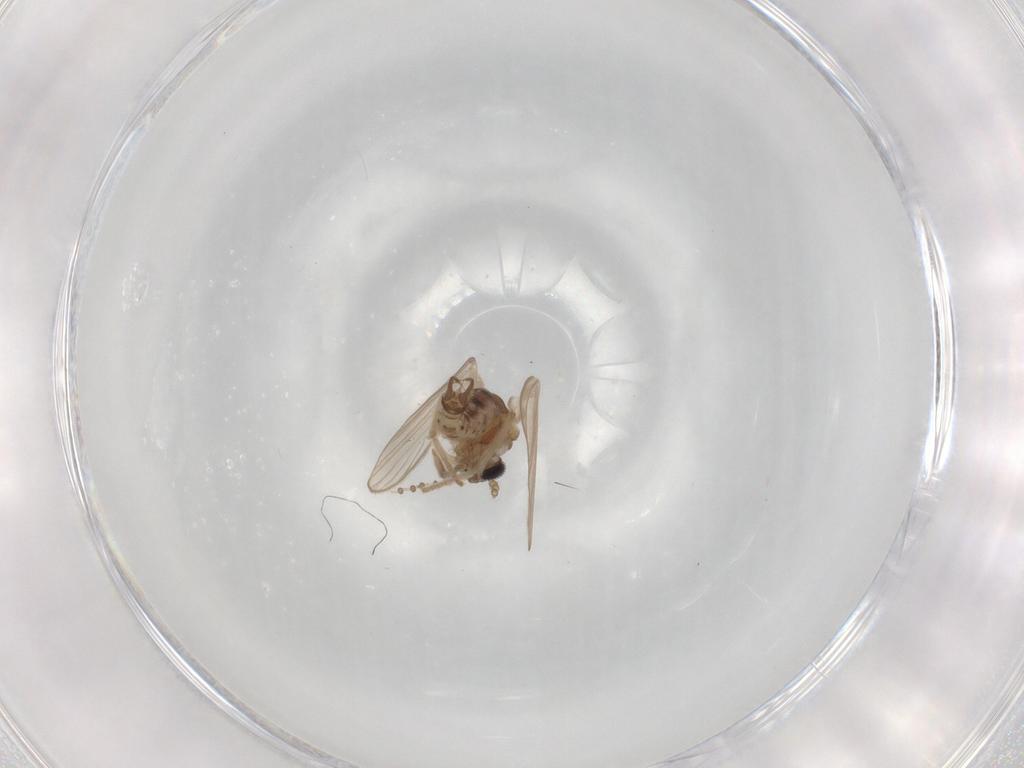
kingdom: Animalia
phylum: Arthropoda
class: Insecta
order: Diptera
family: Psychodidae
